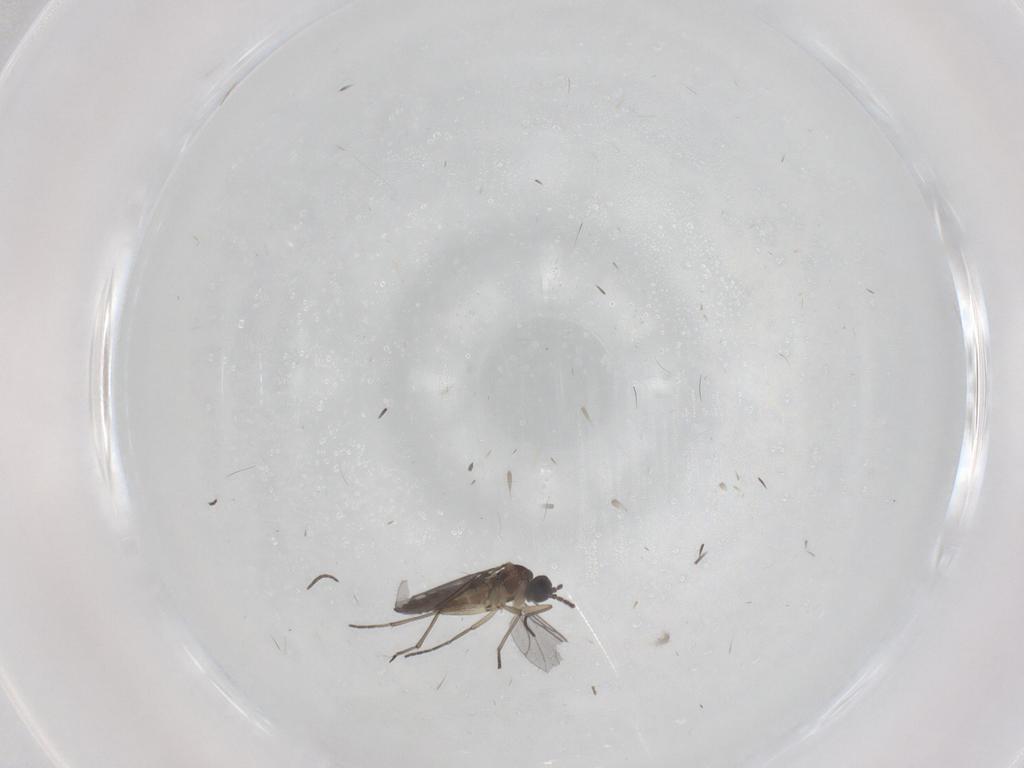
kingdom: Animalia
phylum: Arthropoda
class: Insecta
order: Diptera
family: Sciaridae
